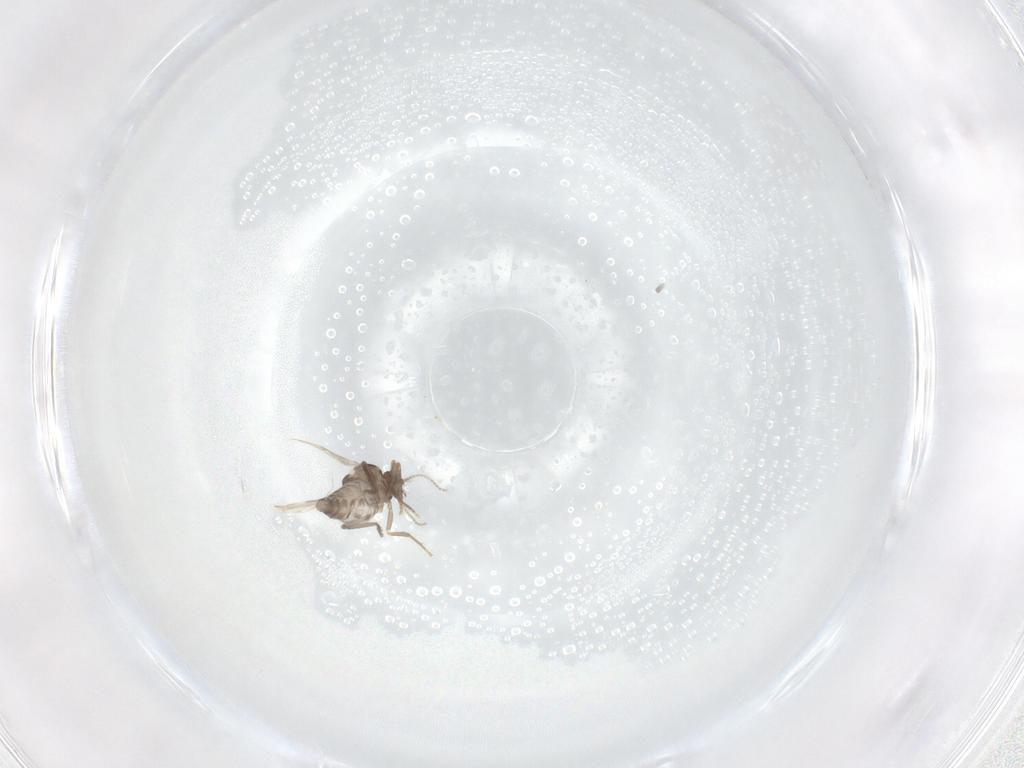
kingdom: Animalia
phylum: Arthropoda
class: Insecta
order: Diptera
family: Ceratopogonidae
